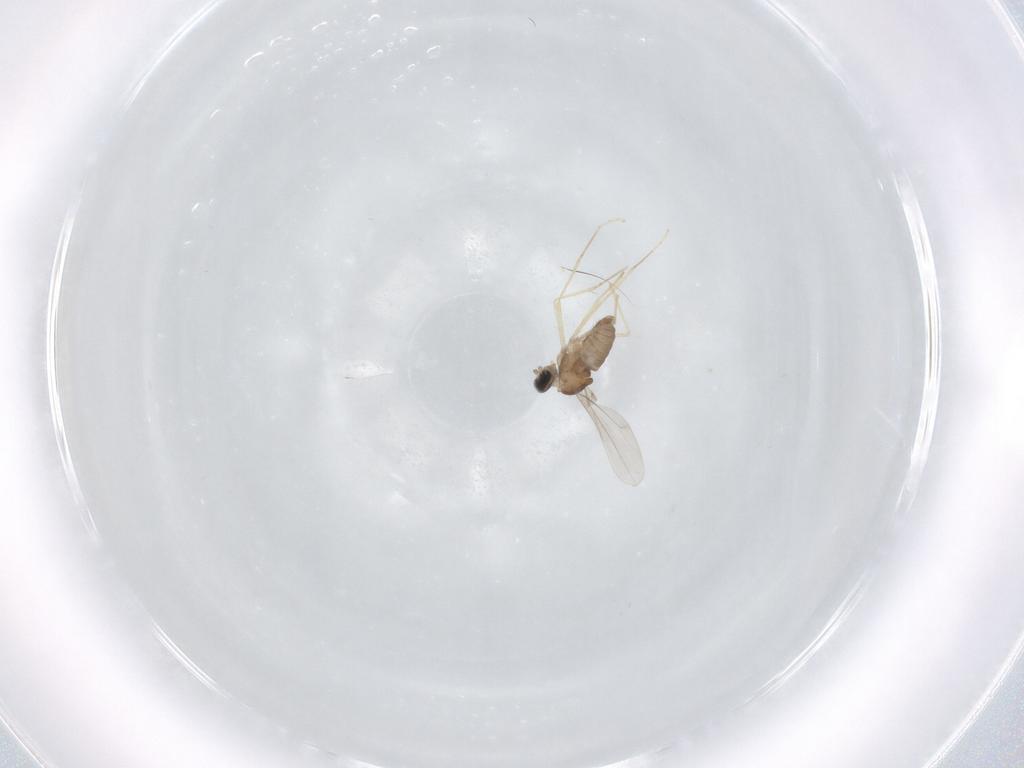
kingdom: Animalia
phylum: Arthropoda
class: Insecta
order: Diptera
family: Cecidomyiidae
